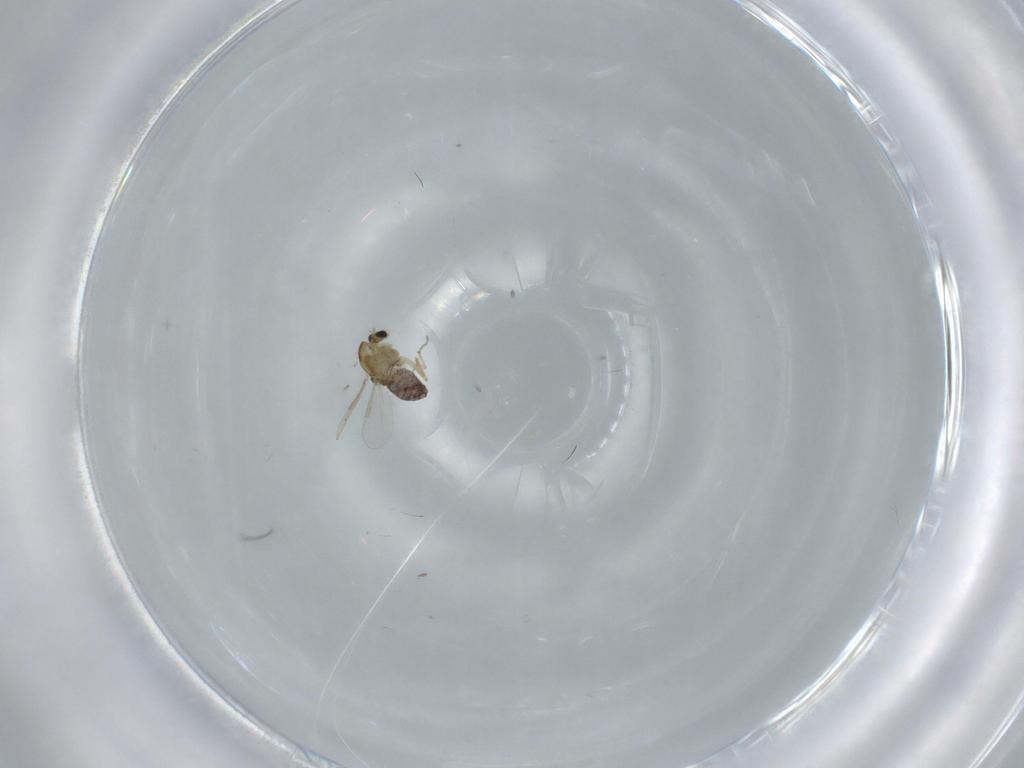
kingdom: Animalia
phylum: Arthropoda
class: Insecta
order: Diptera
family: Chironomidae
